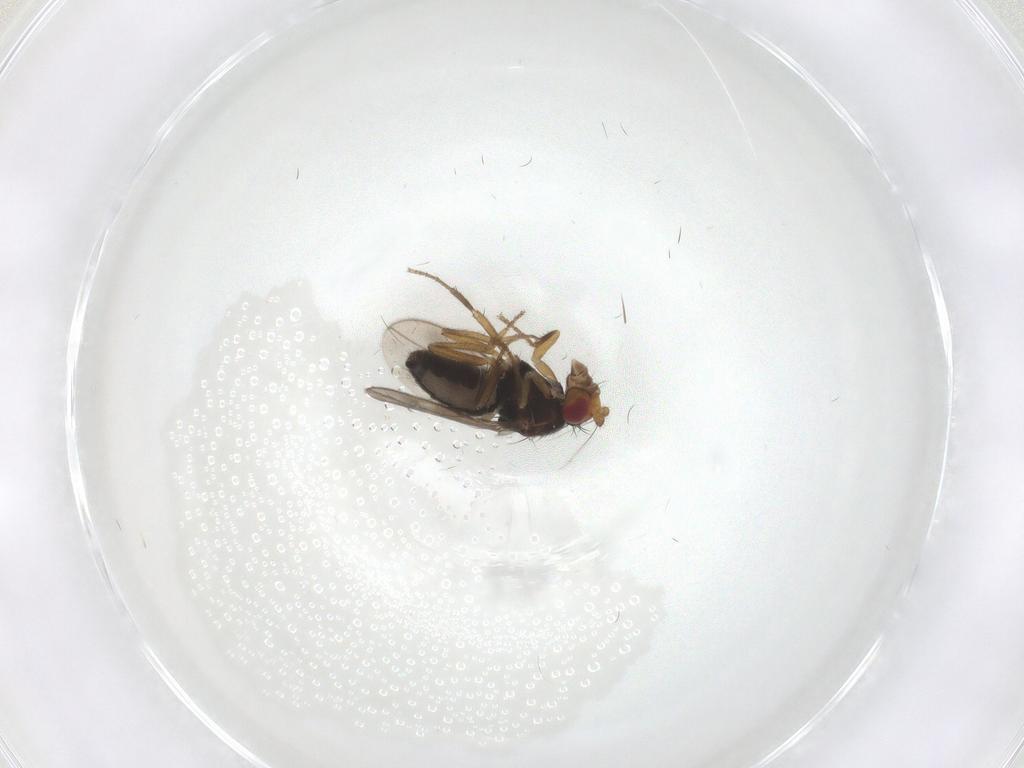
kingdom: Animalia
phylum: Arthropoda
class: Insecta
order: Diptera
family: Sphaeroceridae
